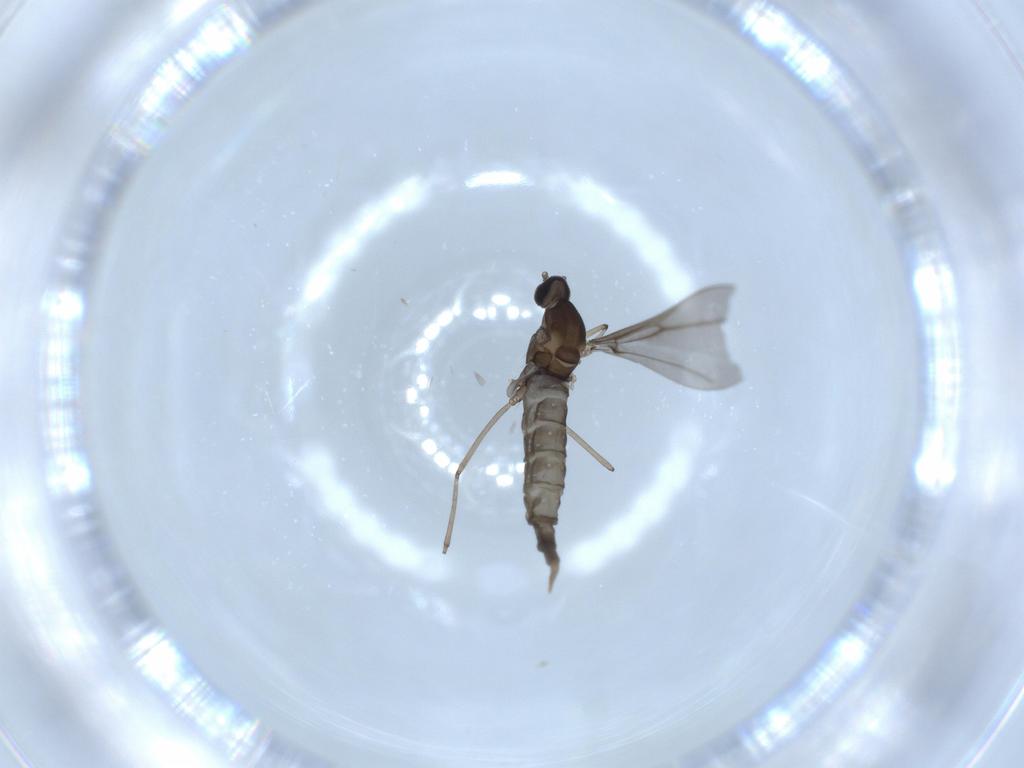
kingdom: Animalia
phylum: Arthropoda
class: Insecta
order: Diptera
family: Cecidomyiidae
